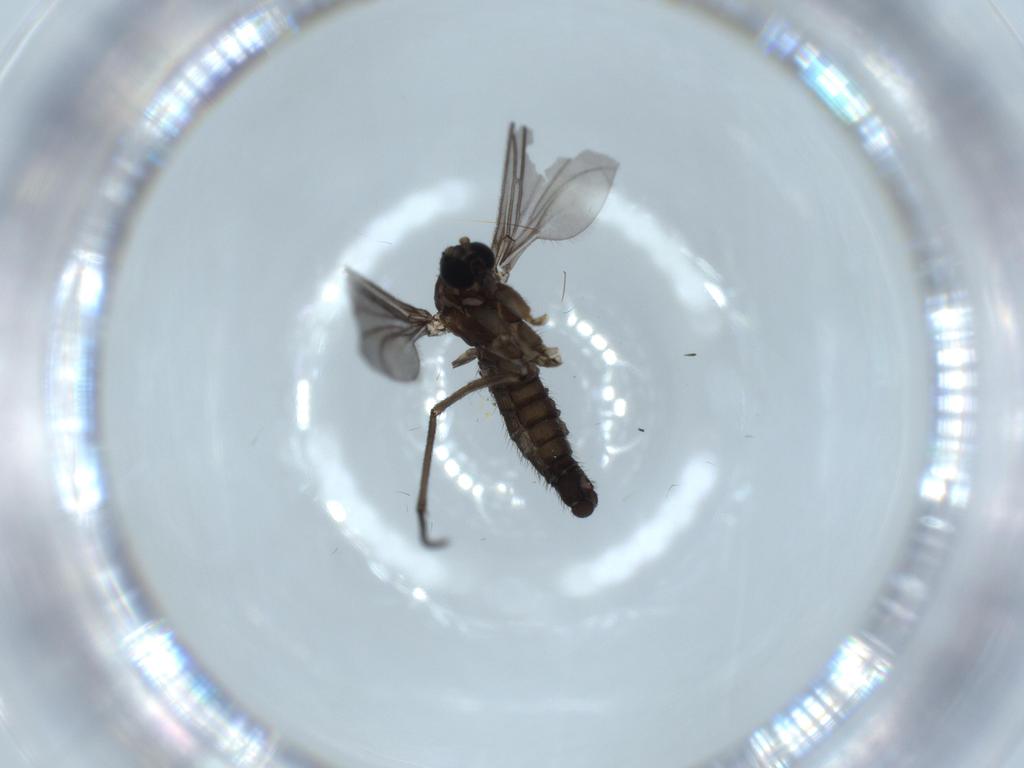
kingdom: Animalia
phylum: Arthropoda
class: Insecta
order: Diptera
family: Sciaridae
